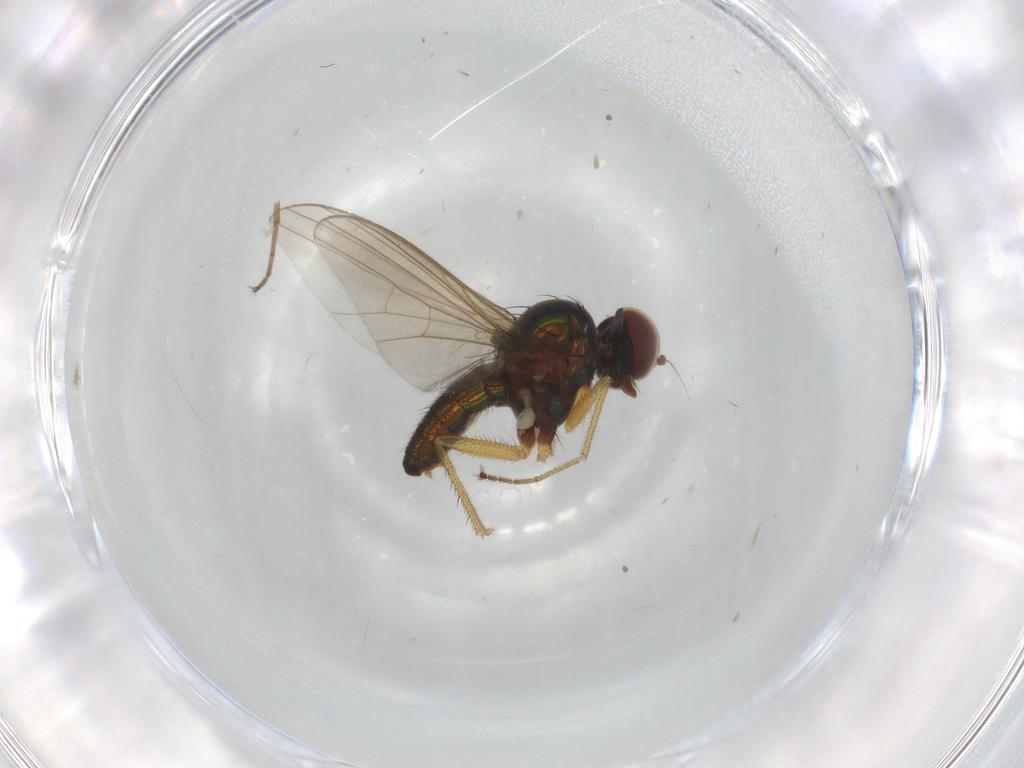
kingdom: Animalia
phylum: Arthropoda
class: Insecta
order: Diptera
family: Dolichopodidae
